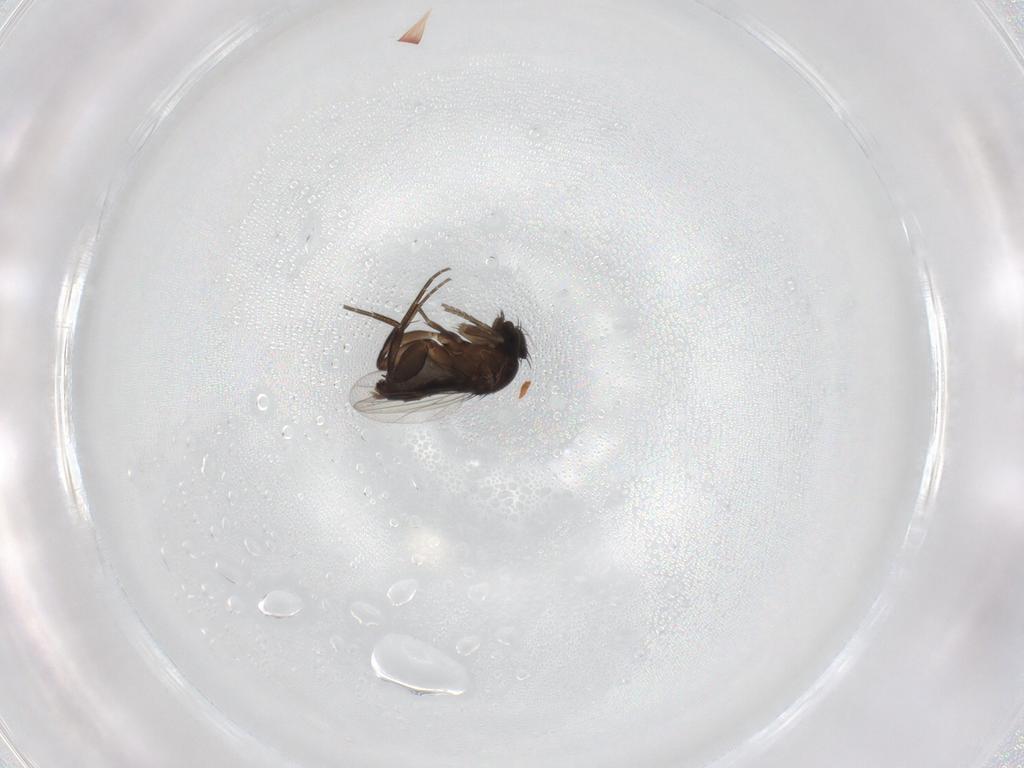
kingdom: Animalia
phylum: Arthropoda
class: Insecta
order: Diptera
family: Phoridae
